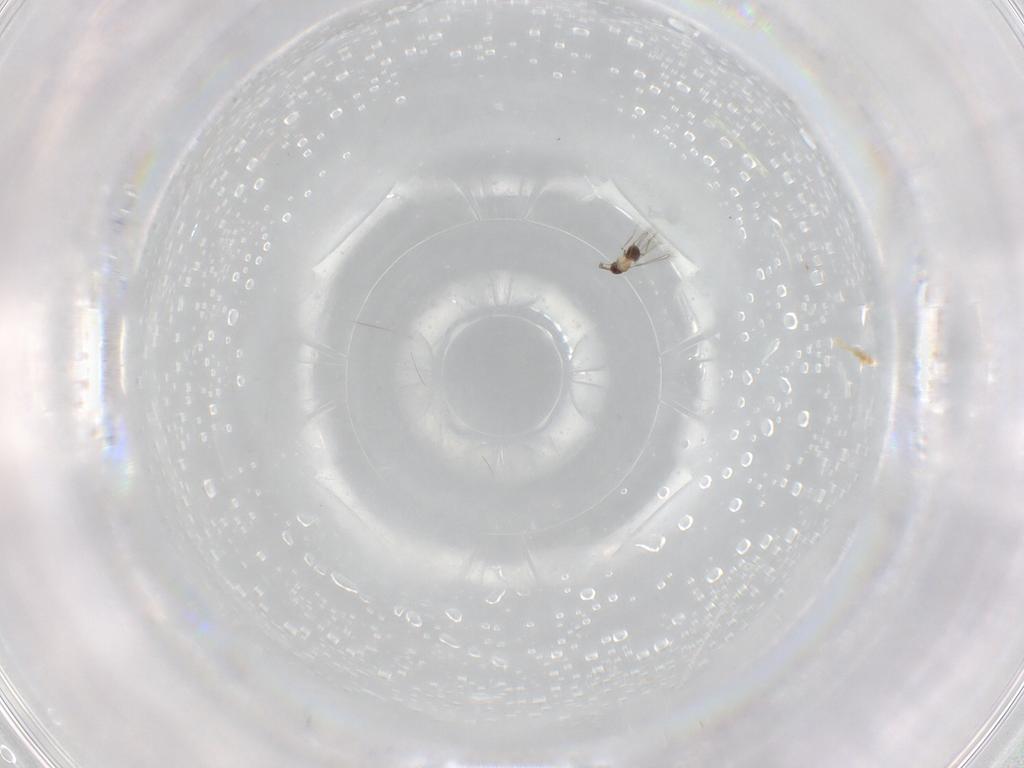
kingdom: Animalia
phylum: Arthropoda
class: Insecta
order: Hymenoptera
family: Mymaridae
